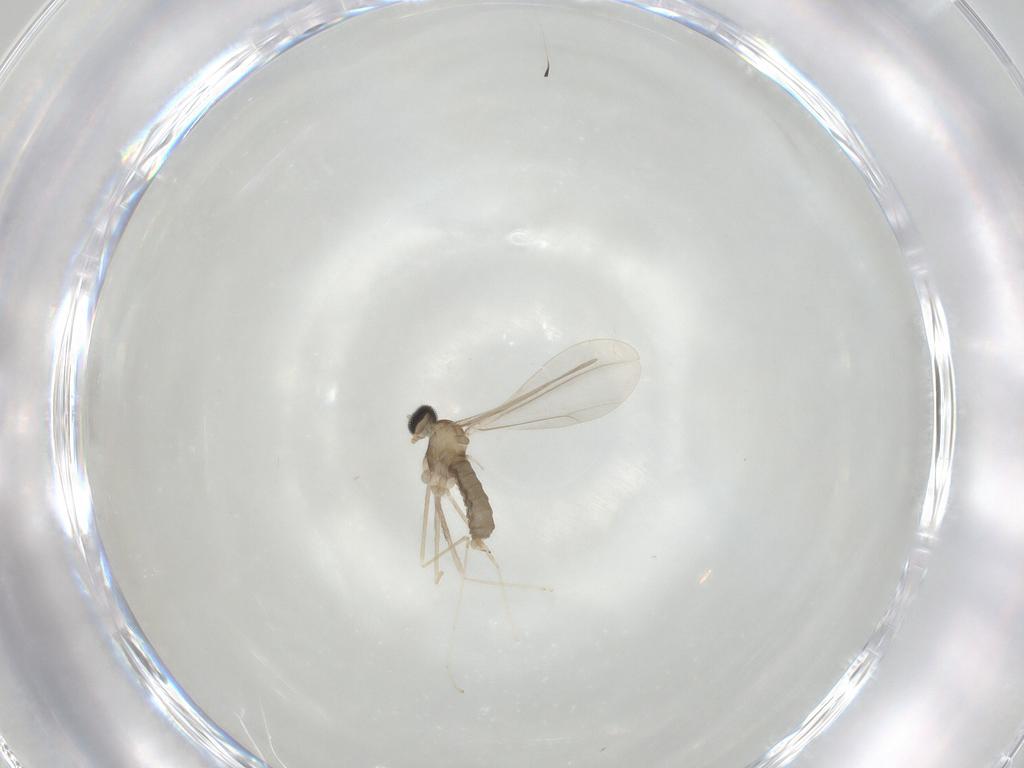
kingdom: Animalia
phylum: Arthropoda
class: Insecta
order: Diptera
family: Cecidomyiidae
